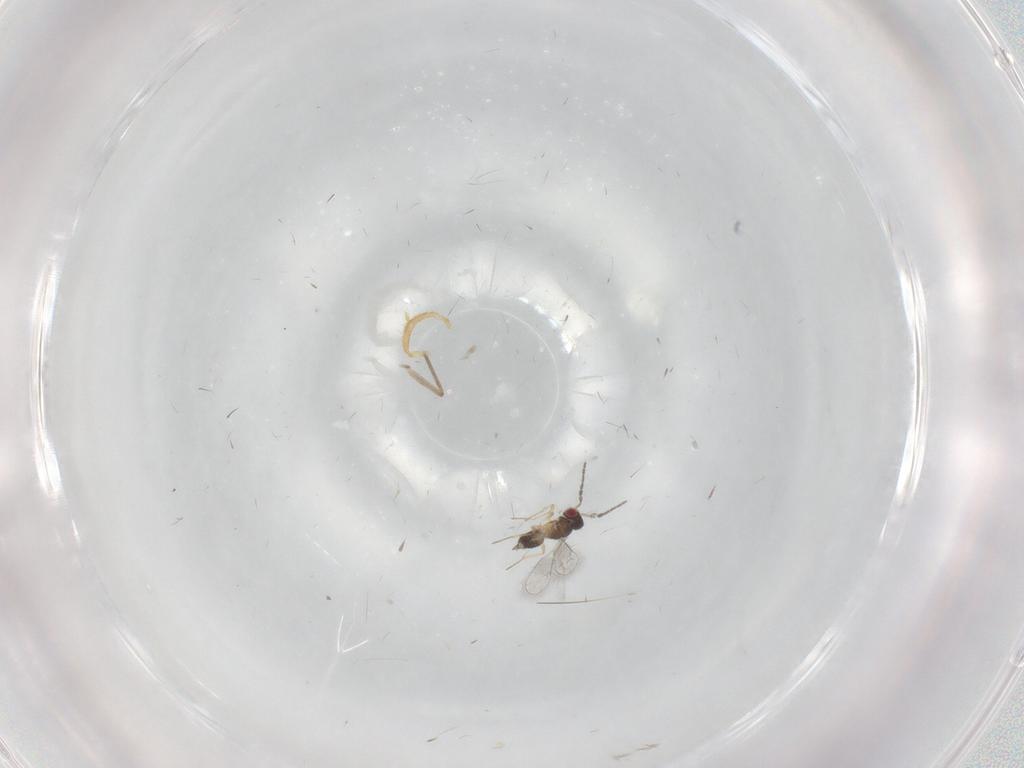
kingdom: Animalia
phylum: Arthropoda
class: Insecta
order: Hymenoptera
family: Eulophidae
